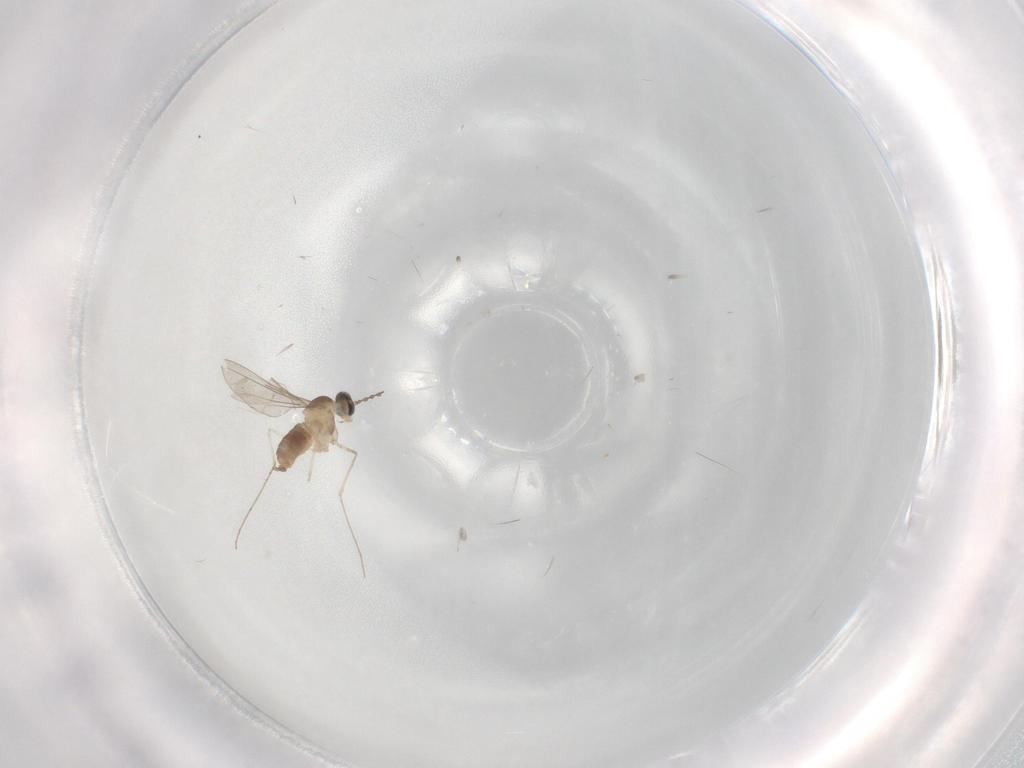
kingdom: Animalia
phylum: Arthropoda
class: Insecta
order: Diptera
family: Cecidomyiidae
